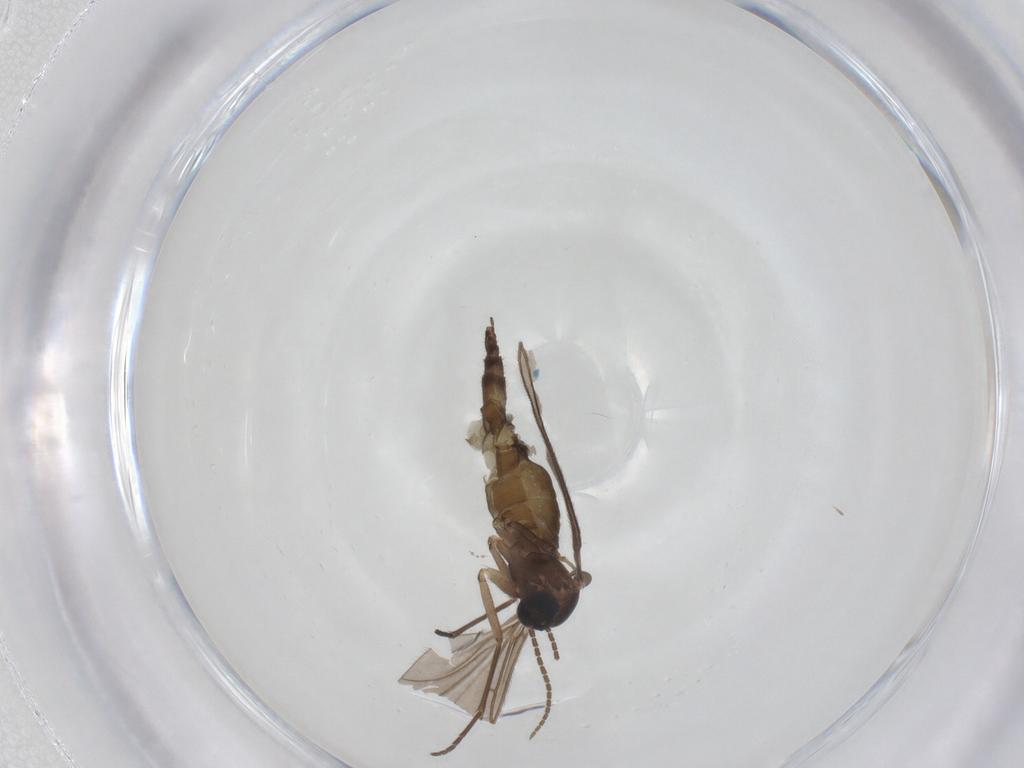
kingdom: Animalia
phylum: Arthropoda
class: Insecta
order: Diptera
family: Sciaridae
